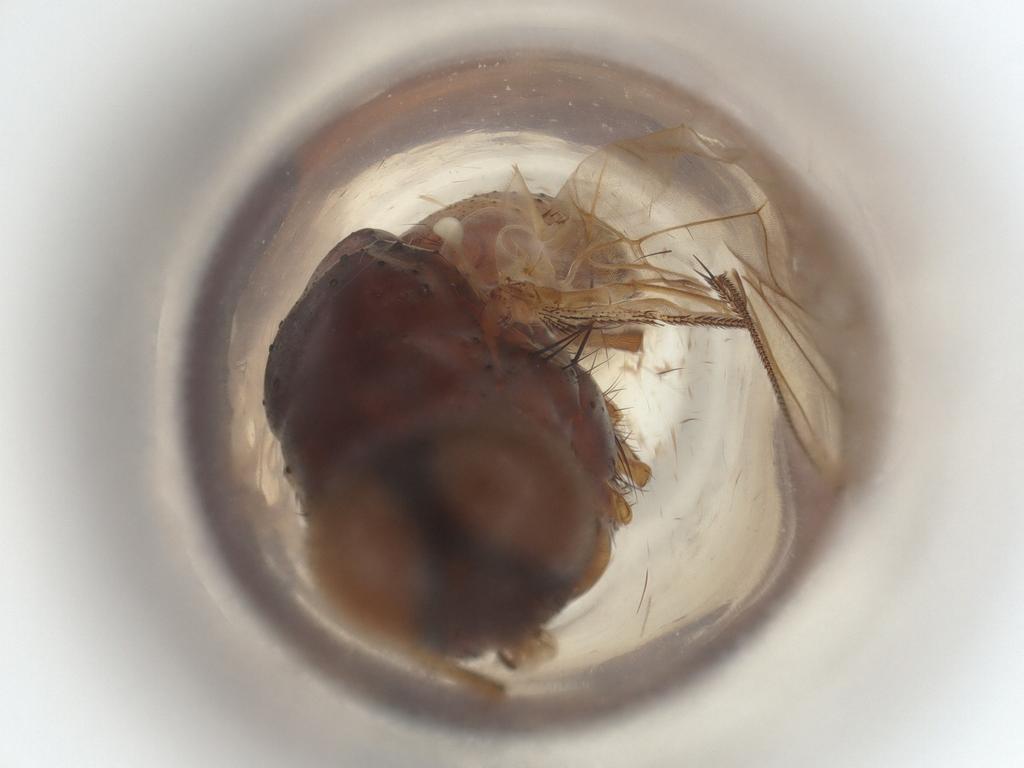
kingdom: Animalia
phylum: Arthropoda
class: Insecta
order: Diptera
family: Muscidae
